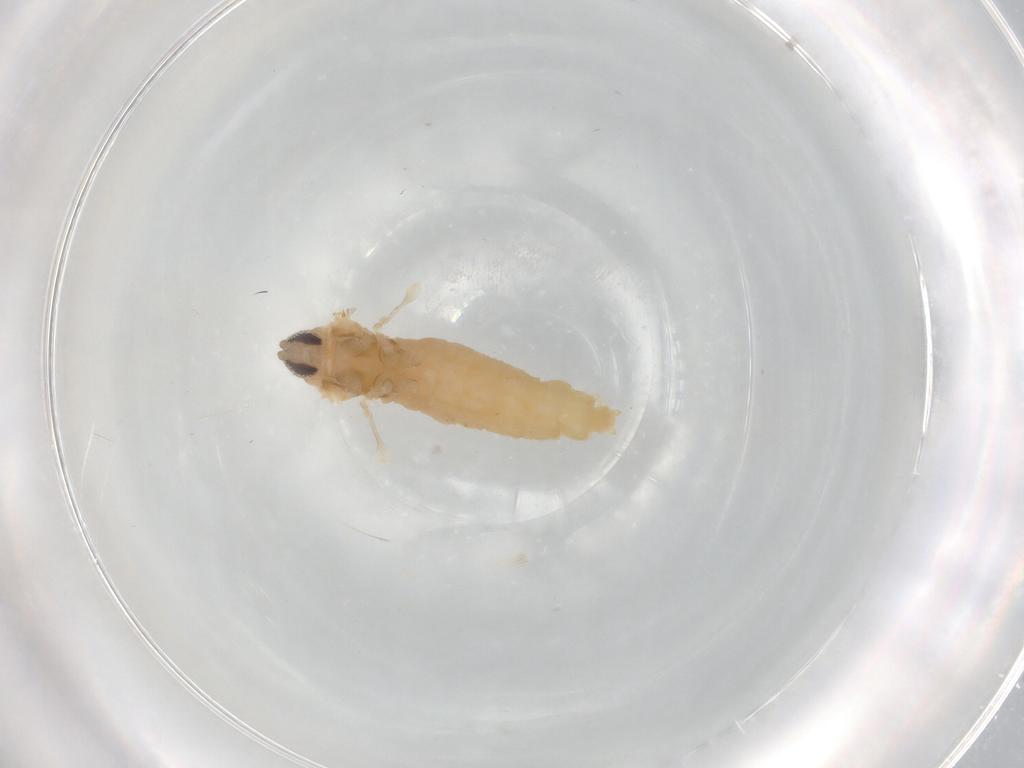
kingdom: Animalia
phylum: Arthropoda
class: Insecta
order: Diptera
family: Cecidomyiidae
